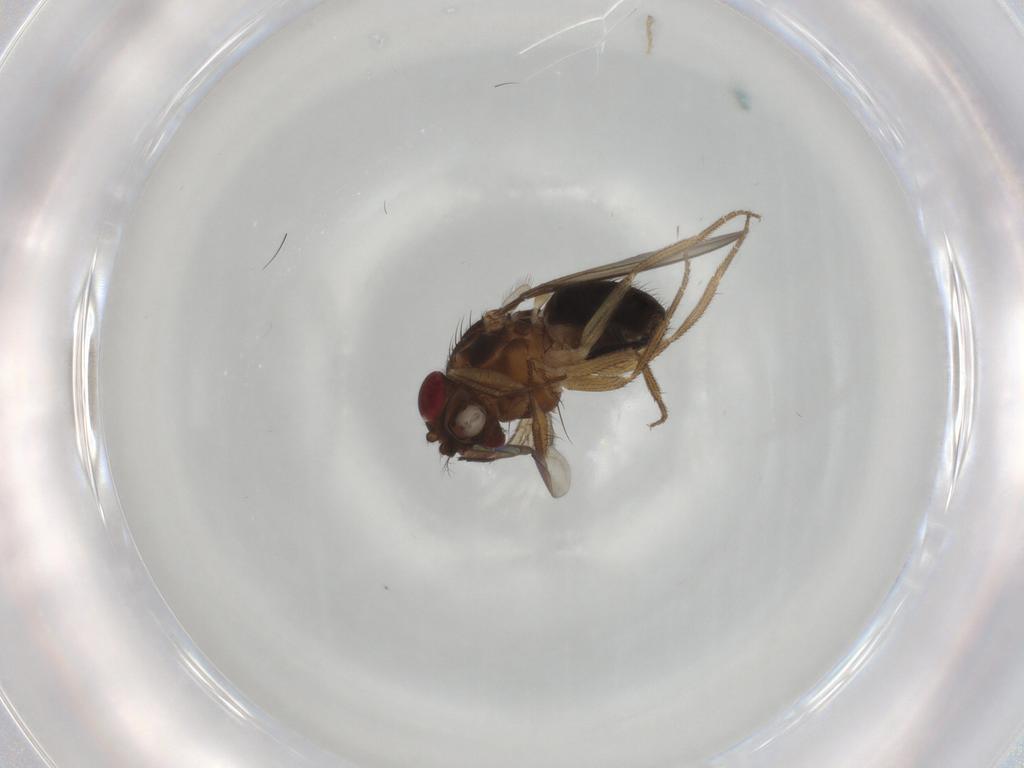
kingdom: Animalia
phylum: Arthropoda
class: Insecta
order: Diptera
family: Drosophilidae
